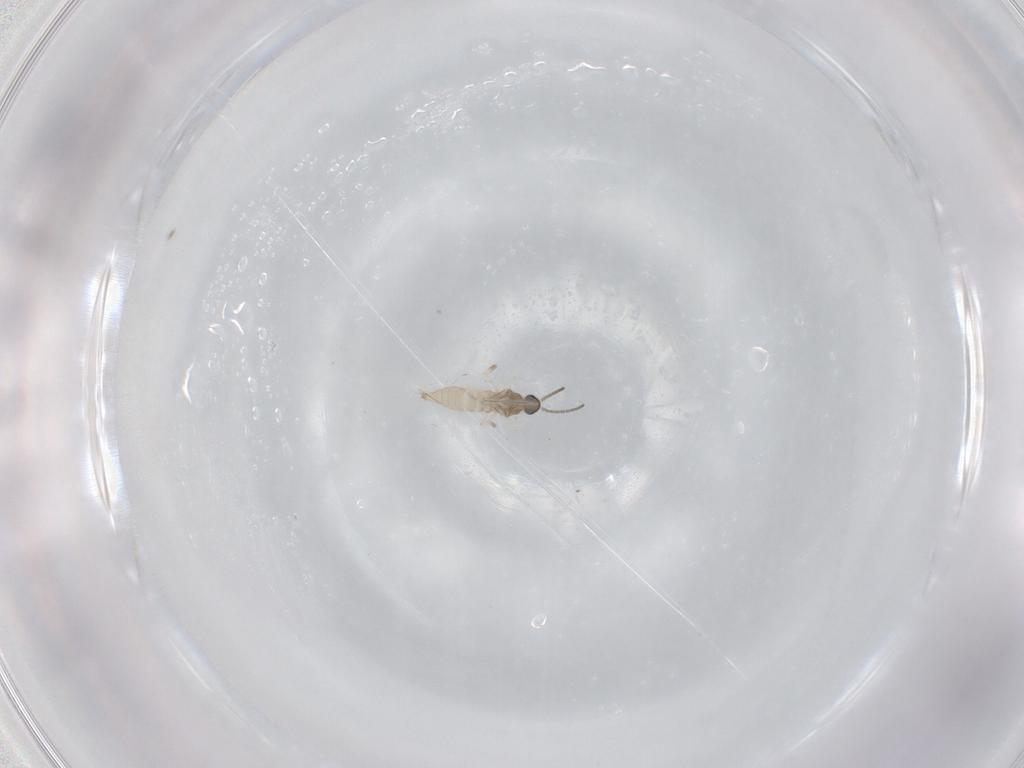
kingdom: Animalia
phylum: Arthropoda
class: Insecta
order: Diptera
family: Cecidomyiidae
